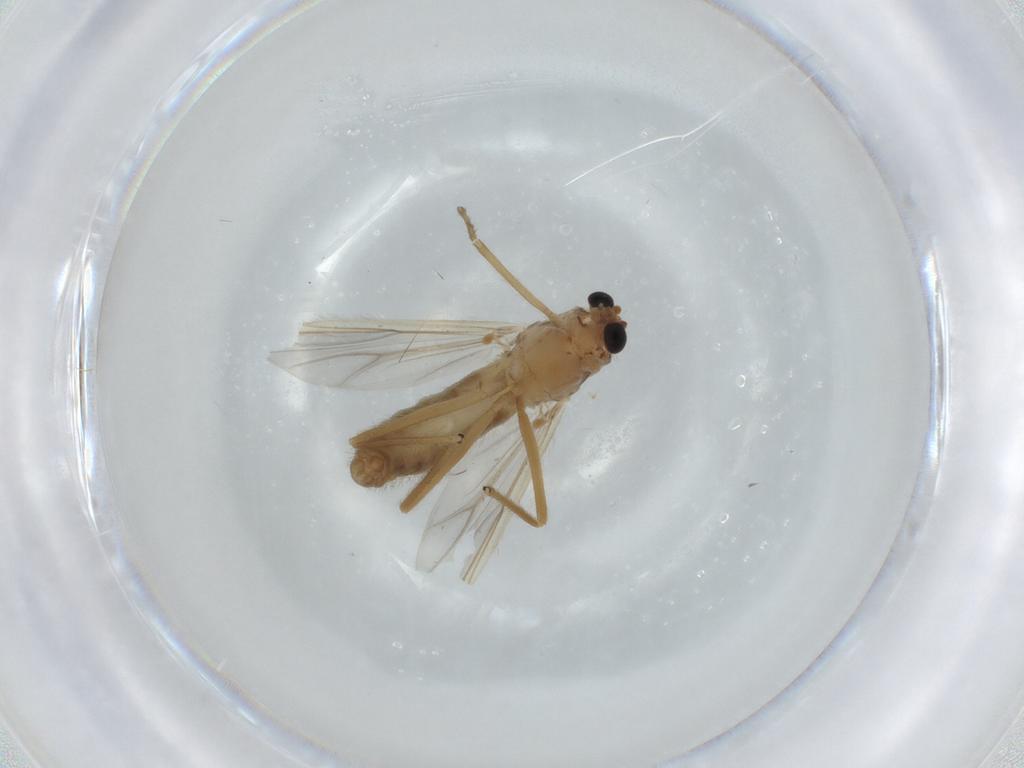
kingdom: Animalia
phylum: Arthropoda
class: Insecta
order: Diptera
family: Chironomidae
